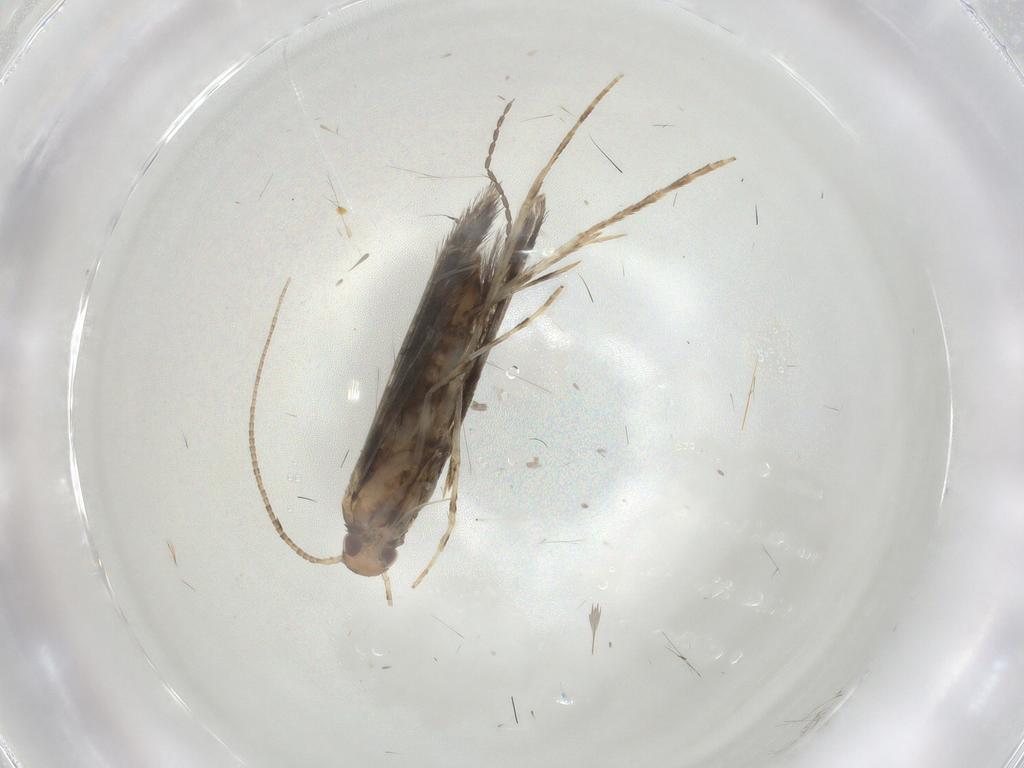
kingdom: Animalia
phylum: Arthropoda
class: Insecta
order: Lepidoptera
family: Gracillariidae
